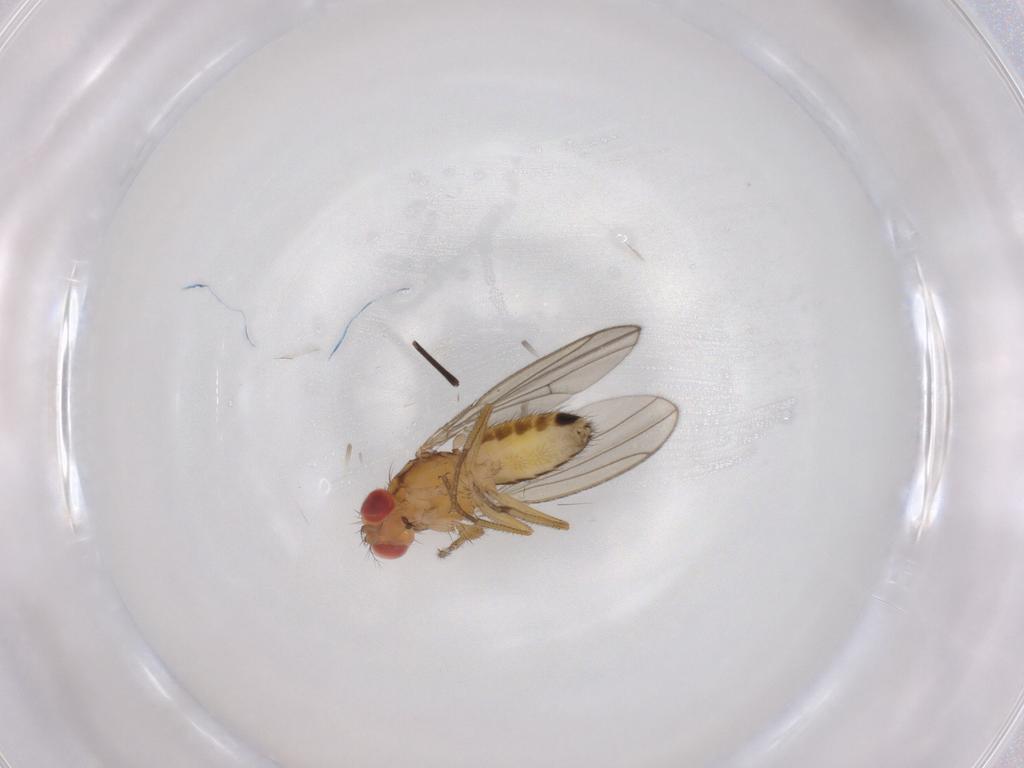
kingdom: Animalia
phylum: Arthropoda
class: Insecta
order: Diptera
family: Drosophilidae
